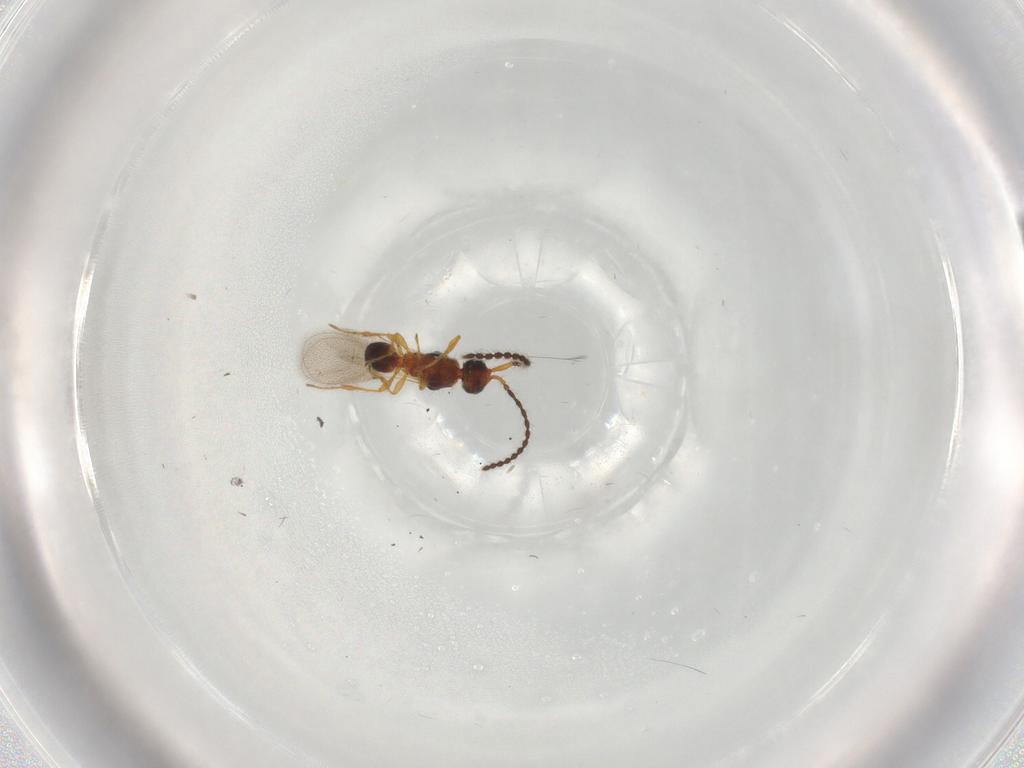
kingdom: Animalia
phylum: Arthropoda
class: Insecta
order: Hymenoptera
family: Diapriidae
